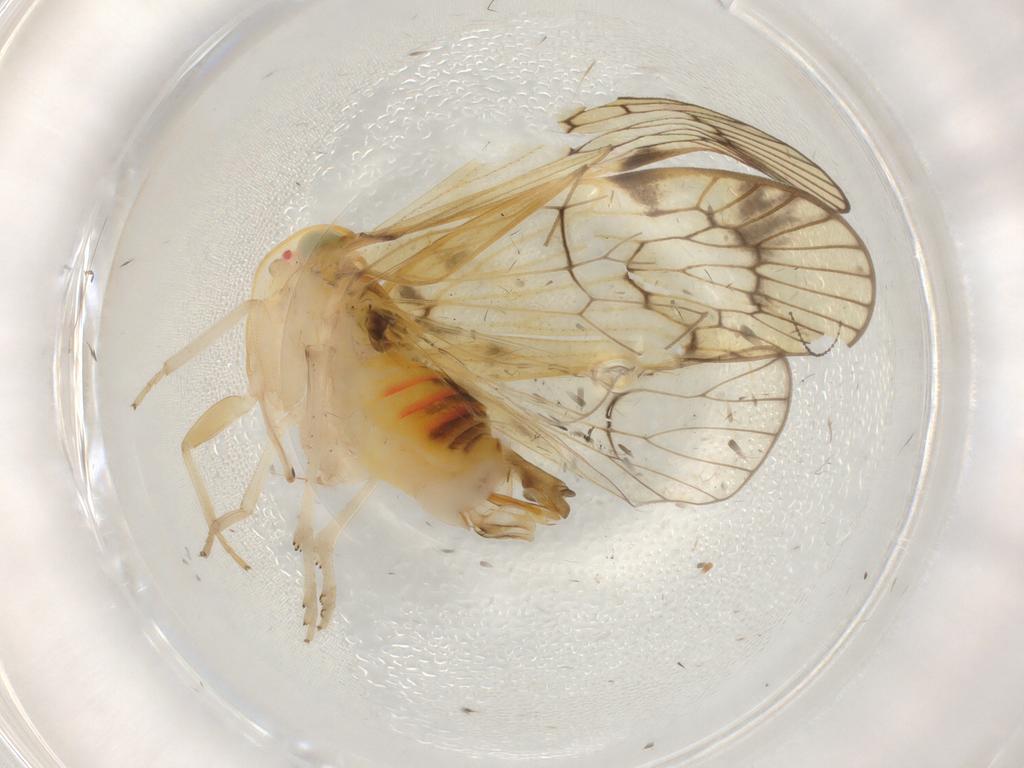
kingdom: Animalia
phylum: Arthropoda
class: Insecta
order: Hemiptera
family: Cixiidae
